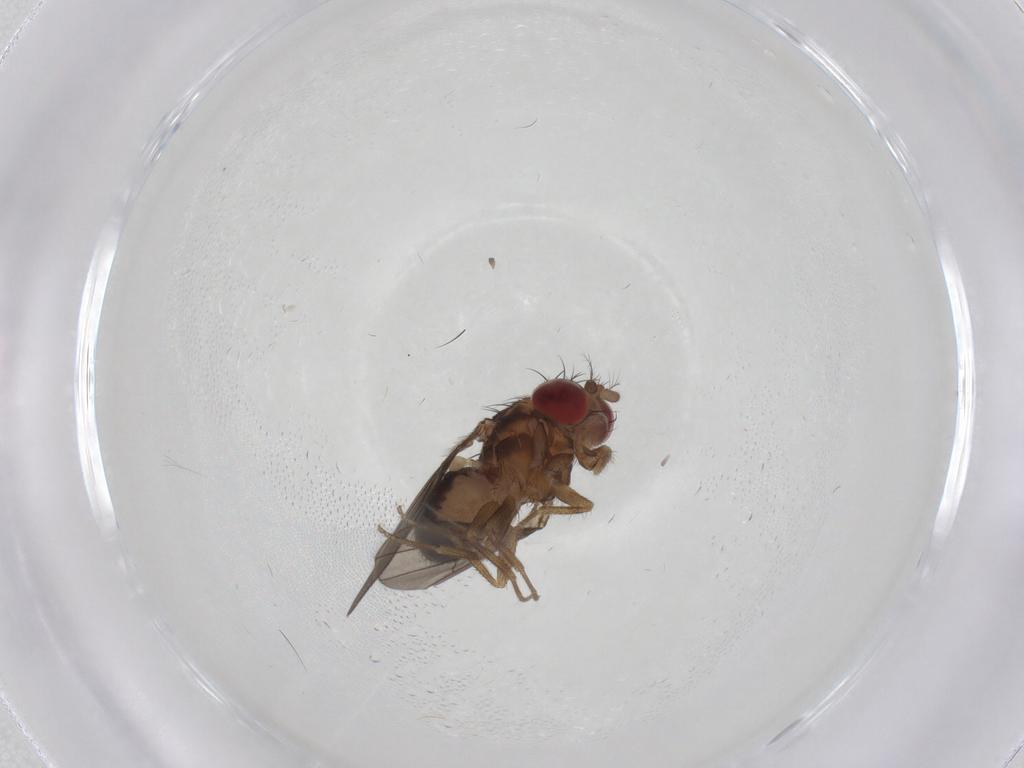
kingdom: Animalia
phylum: Arthropoda
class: Insecta
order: Diptera
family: Drosophilidae
